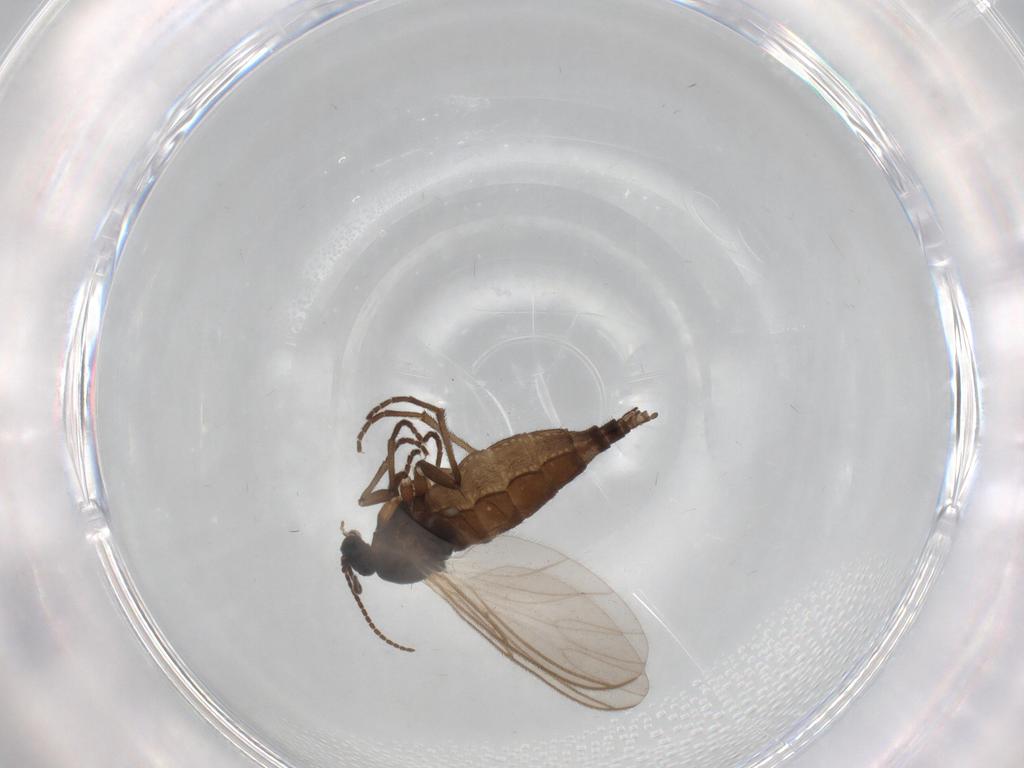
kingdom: Animalia
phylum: Arthropoda
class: Insecta
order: Diptera
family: Sciaridae
